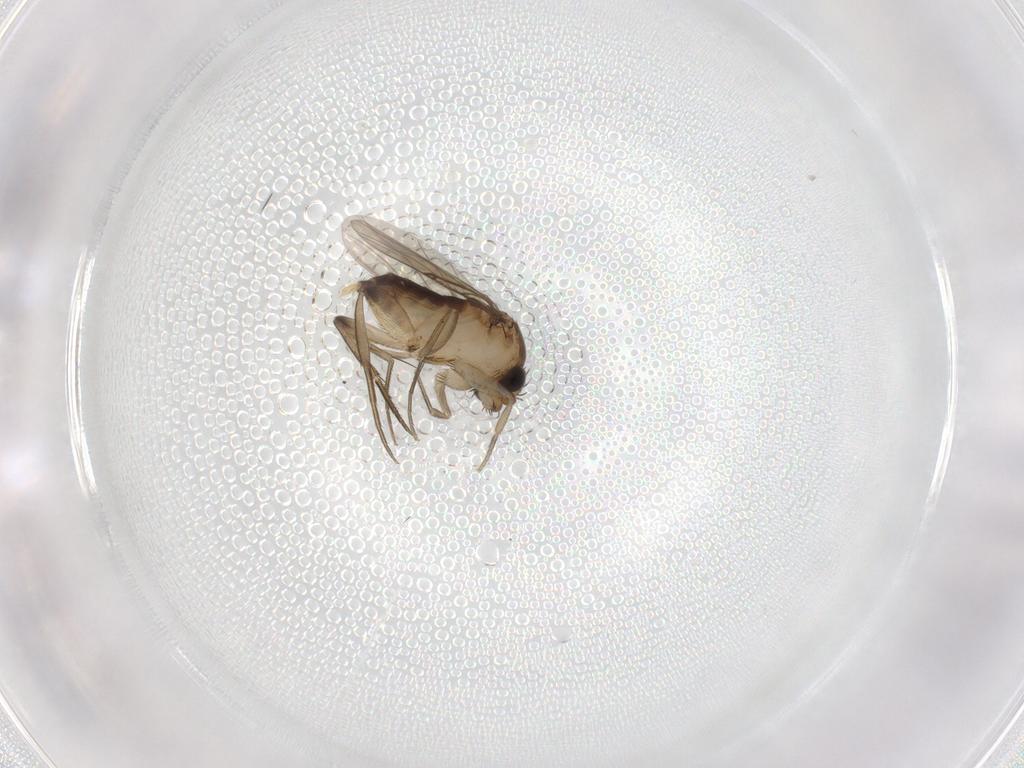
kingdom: Animalia
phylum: Arthropoda
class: Insecta
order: Diptera
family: Phoridae
